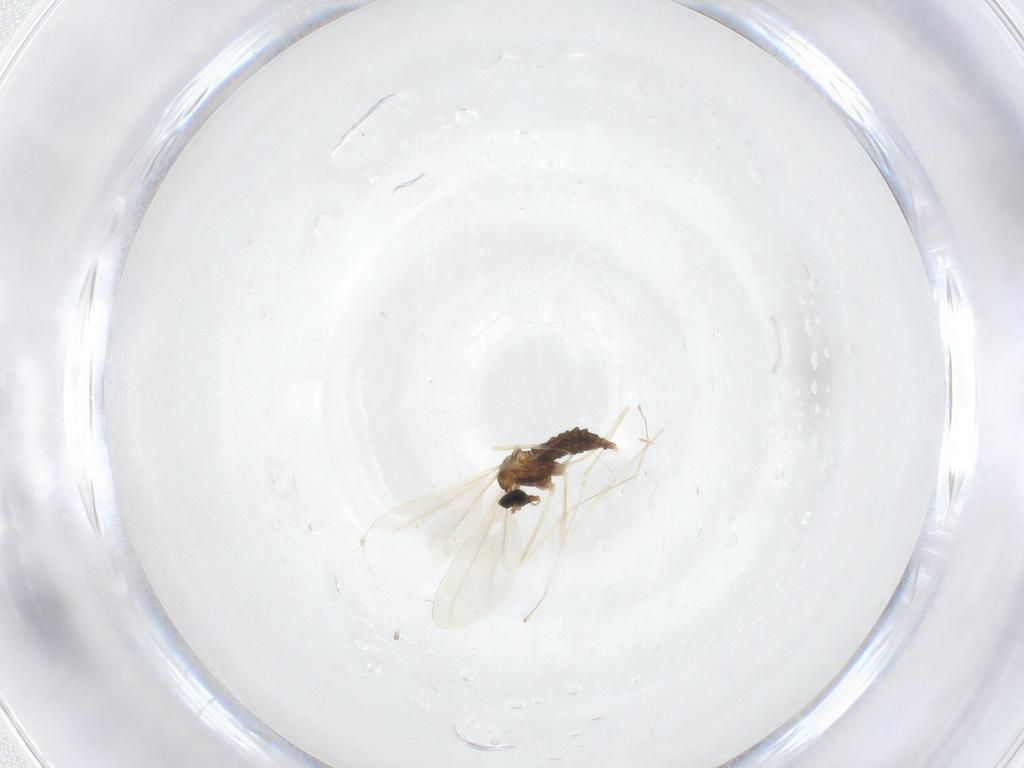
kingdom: Animalia
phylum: Arthropoda
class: Insecta
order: Diptera
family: Cecidomyiidae
